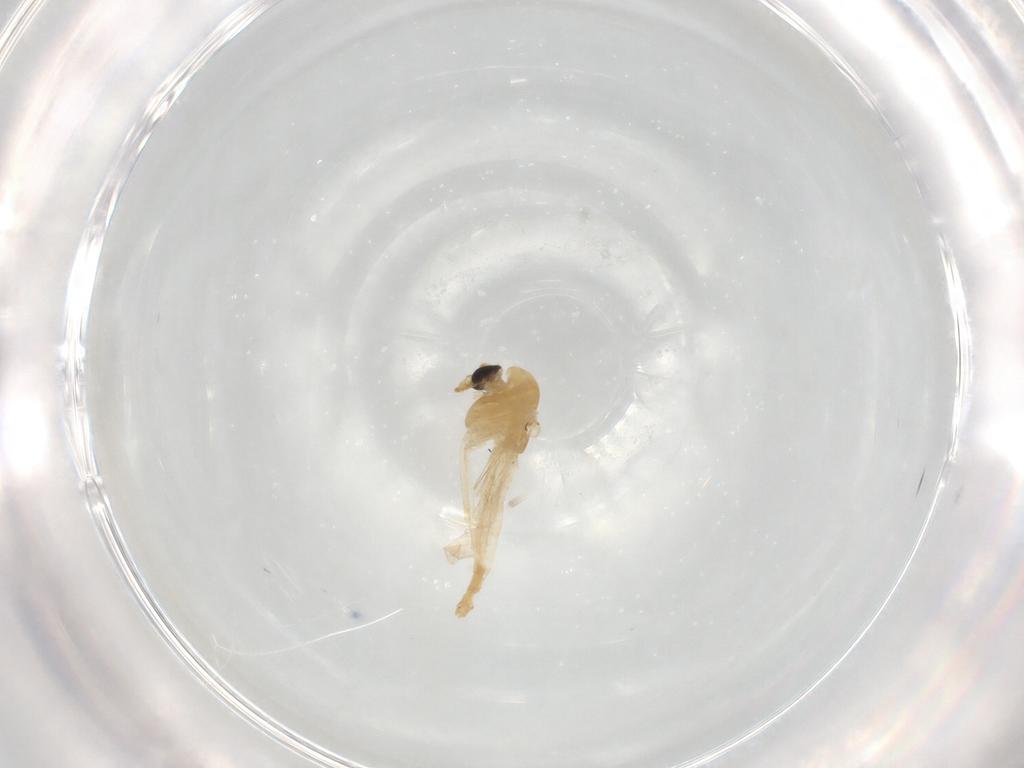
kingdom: Animalia
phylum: Arthropoda
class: Insecta
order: Diptera
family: Chironomidae
